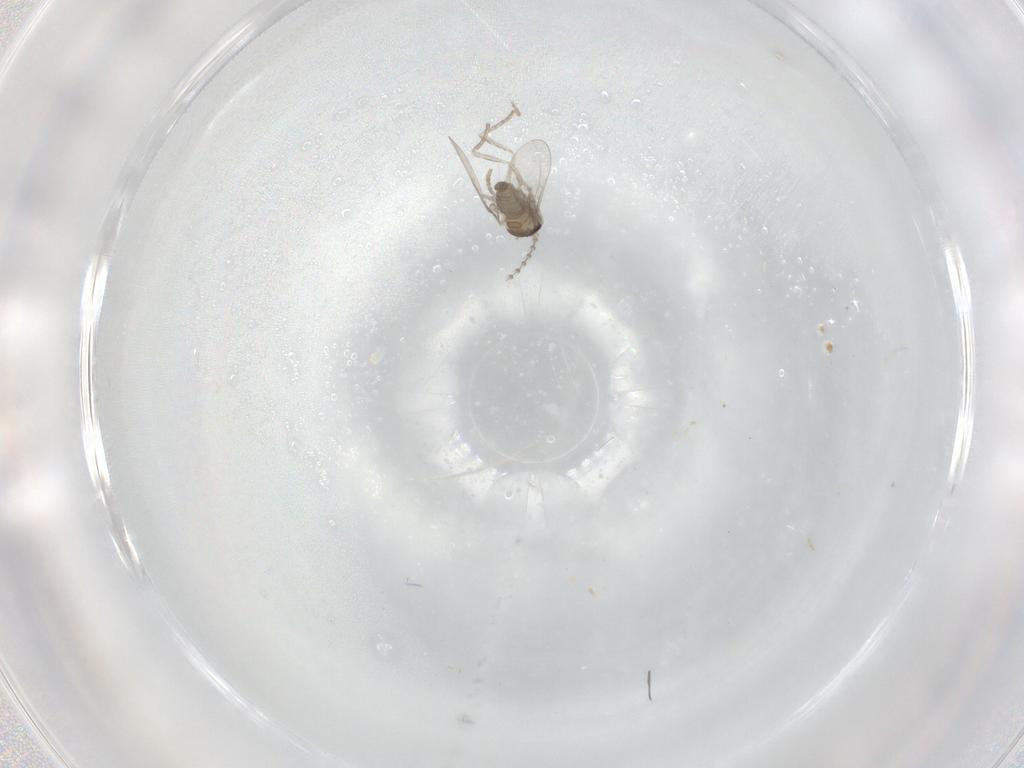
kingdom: Animalia
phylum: Arthropoda
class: Insecta
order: Diptera
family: Cecidomyiidae
